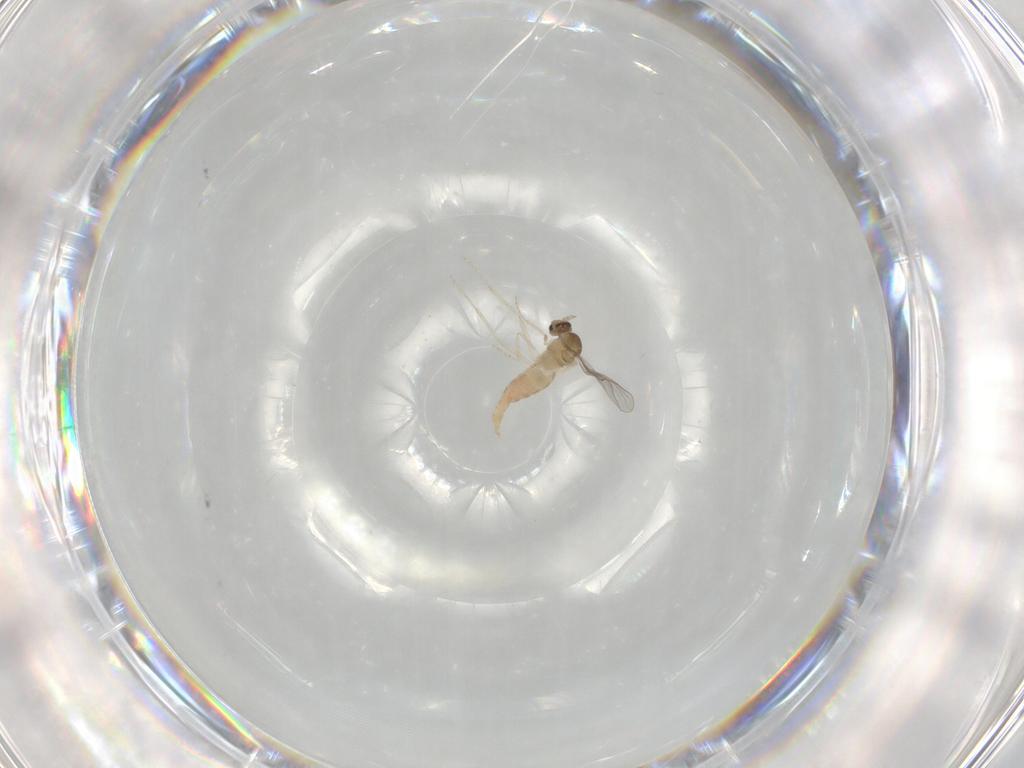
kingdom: Animalia
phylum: Arthropoda
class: Insecta
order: Diptera
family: Cecidomyiidae
